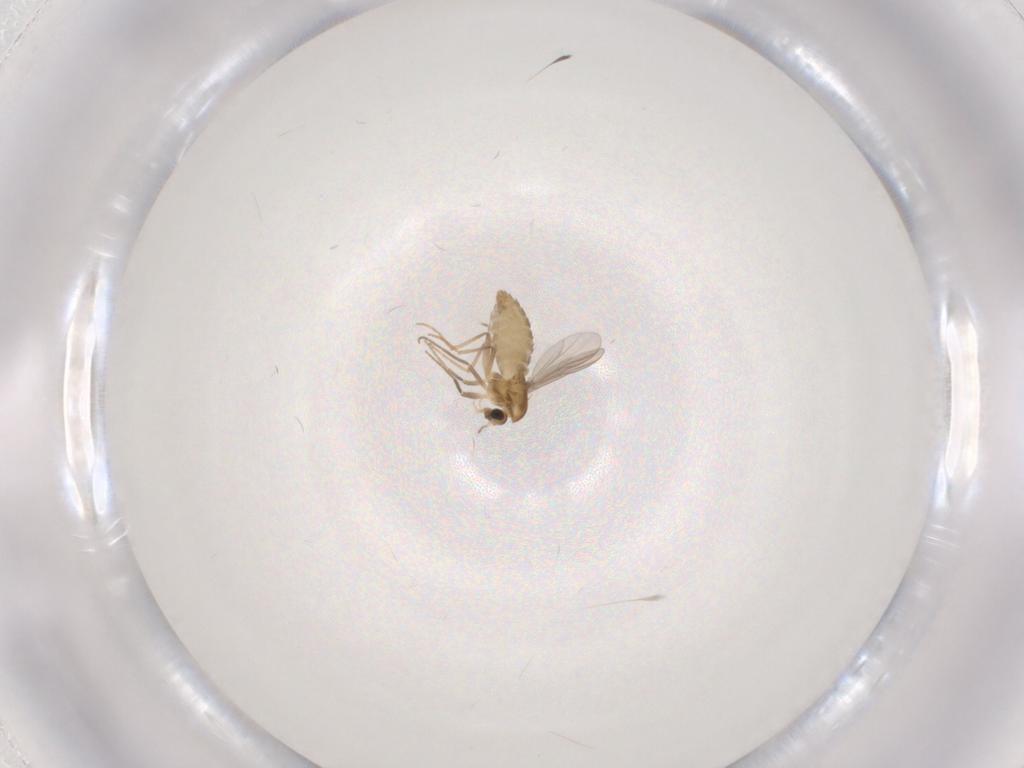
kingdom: Animalia
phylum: Arthropoda
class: Insecta
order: Diptera
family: Chironomidae
